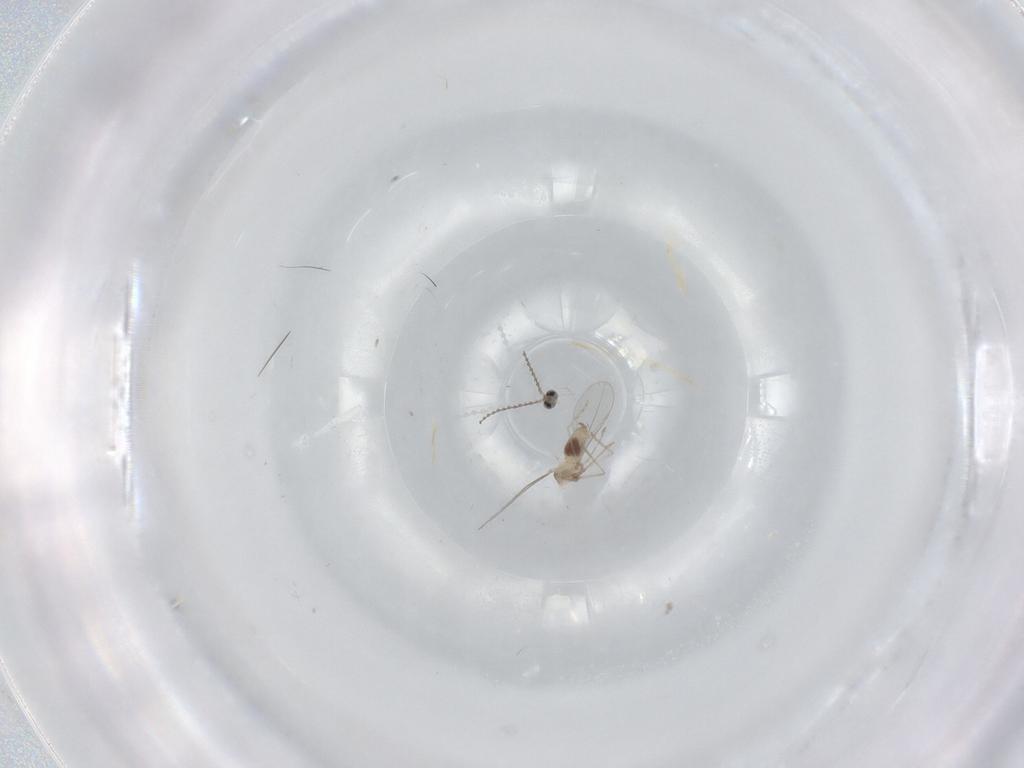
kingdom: Animalia
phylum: Arthropoda
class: Insecta
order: Diptera
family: Cecidomyiidae
